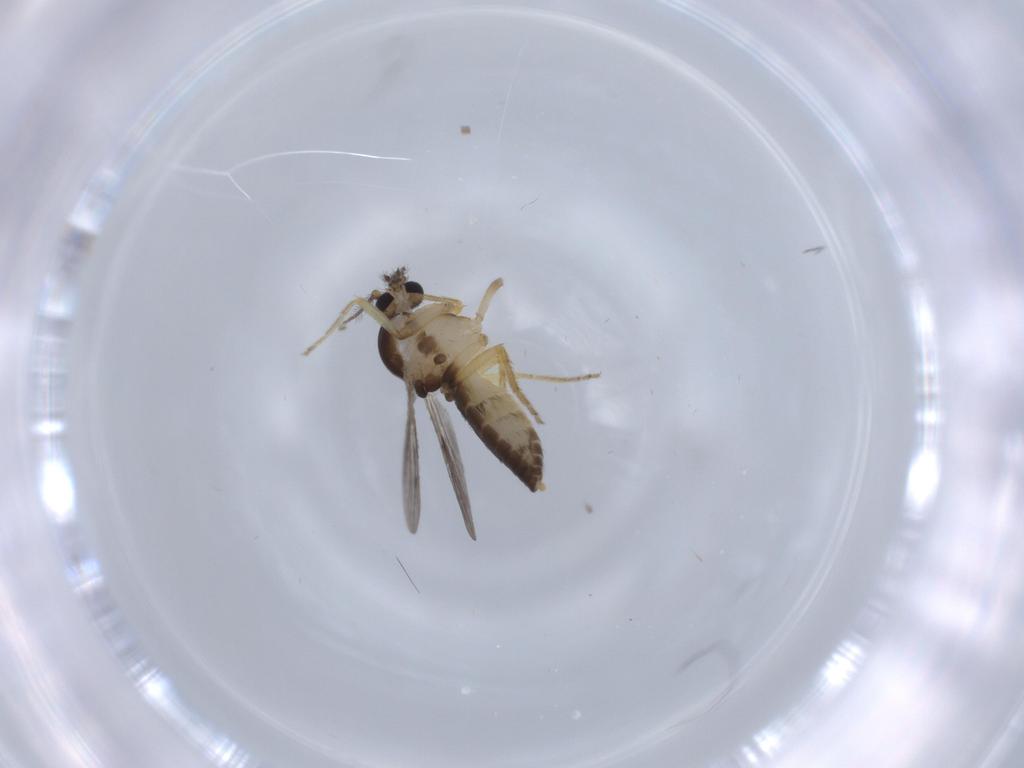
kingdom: Animalia
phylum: Arthropoda
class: Insecta
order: Diptera
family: Ceratopogonidae
